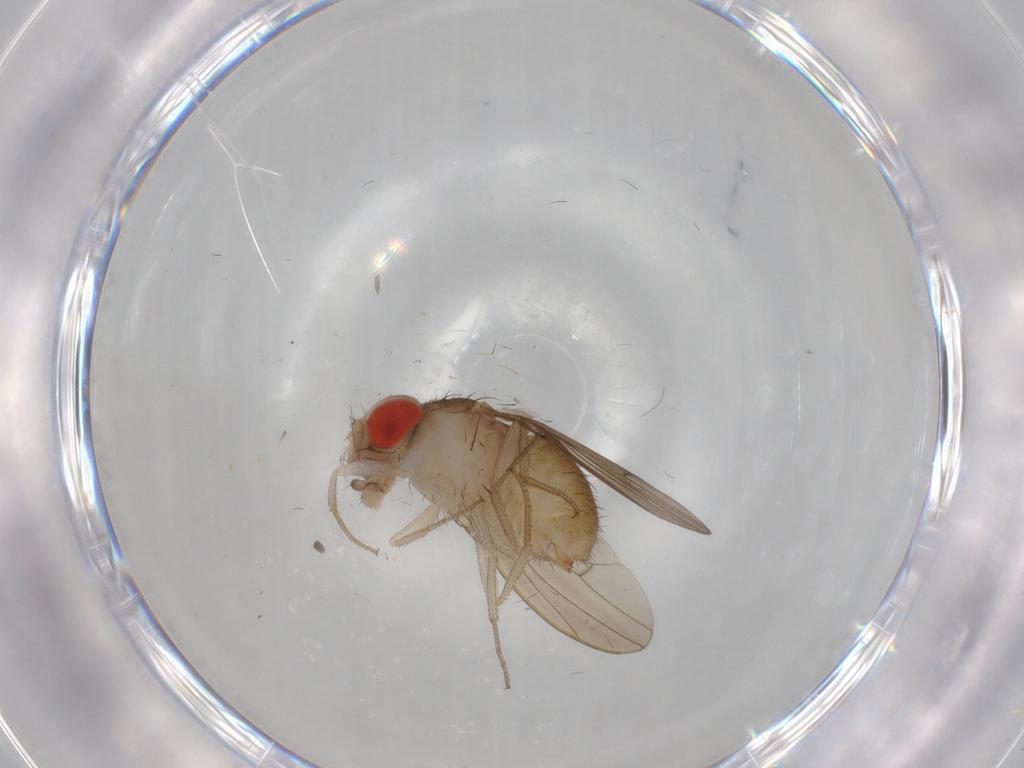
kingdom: Animalia
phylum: Arthropoda
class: Insecta
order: Diptera
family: Drosophilidae
